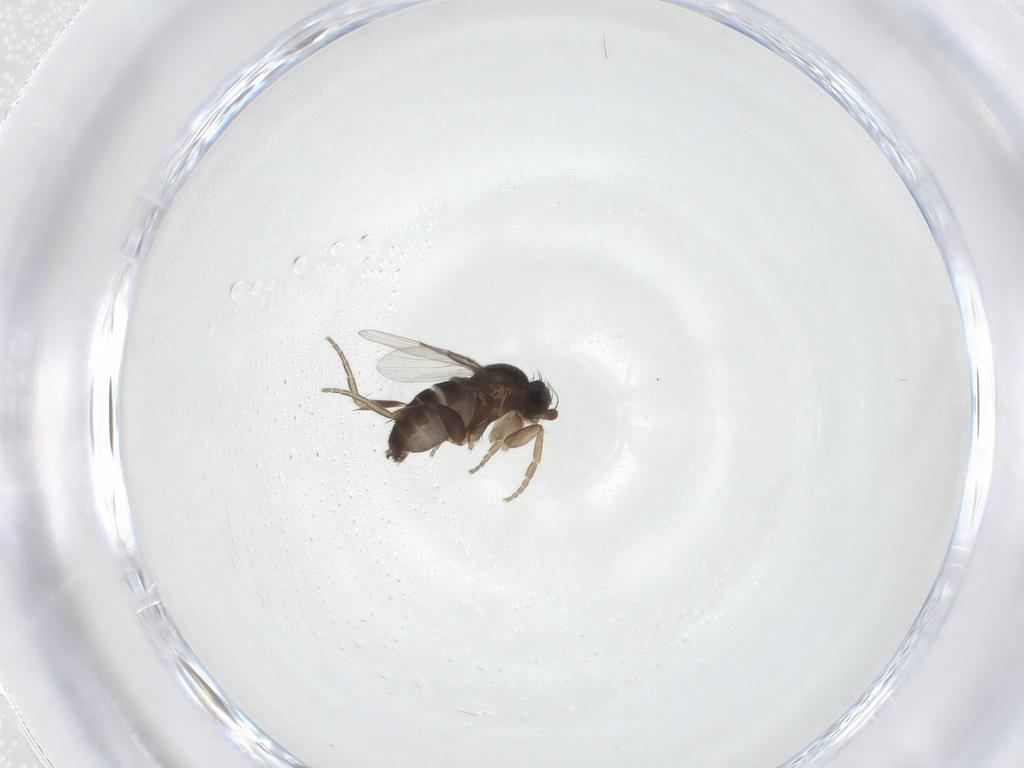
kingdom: Animalia
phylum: Arthropoda
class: Insecta
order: Diptera
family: Phoridae
